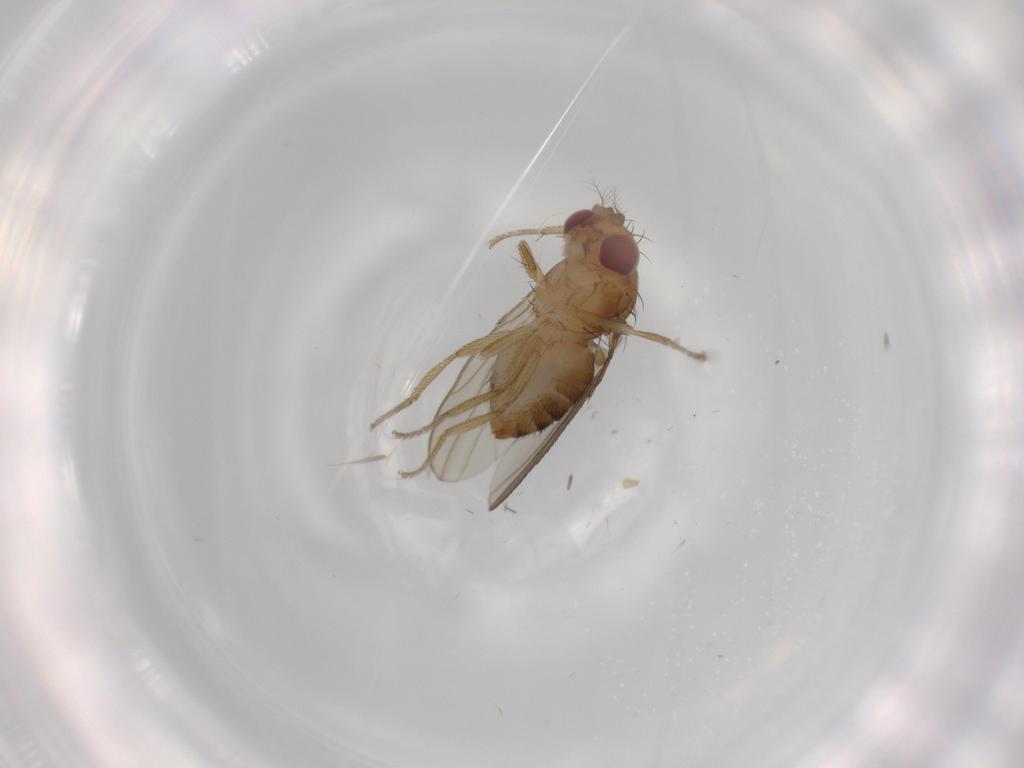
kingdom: Animalia
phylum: Arthropoda
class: Insecta
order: Diptera
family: Drosophilidae
